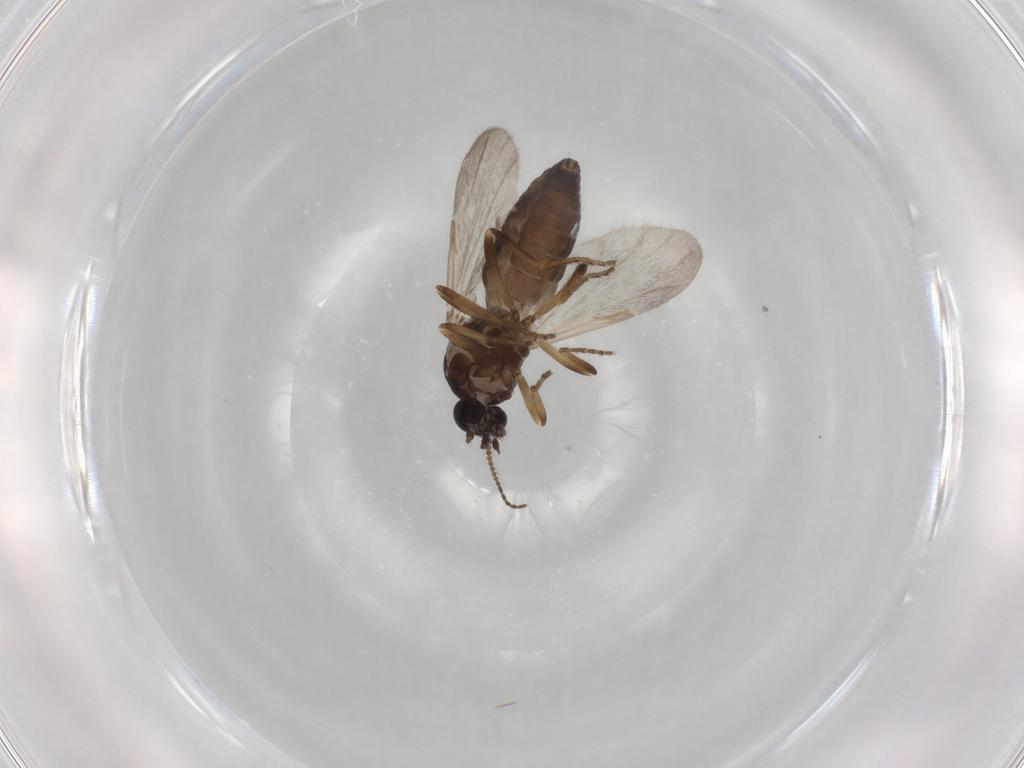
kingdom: Animalia
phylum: Arthropoda
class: Insecta
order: Diptera
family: Ceratopogonidae
